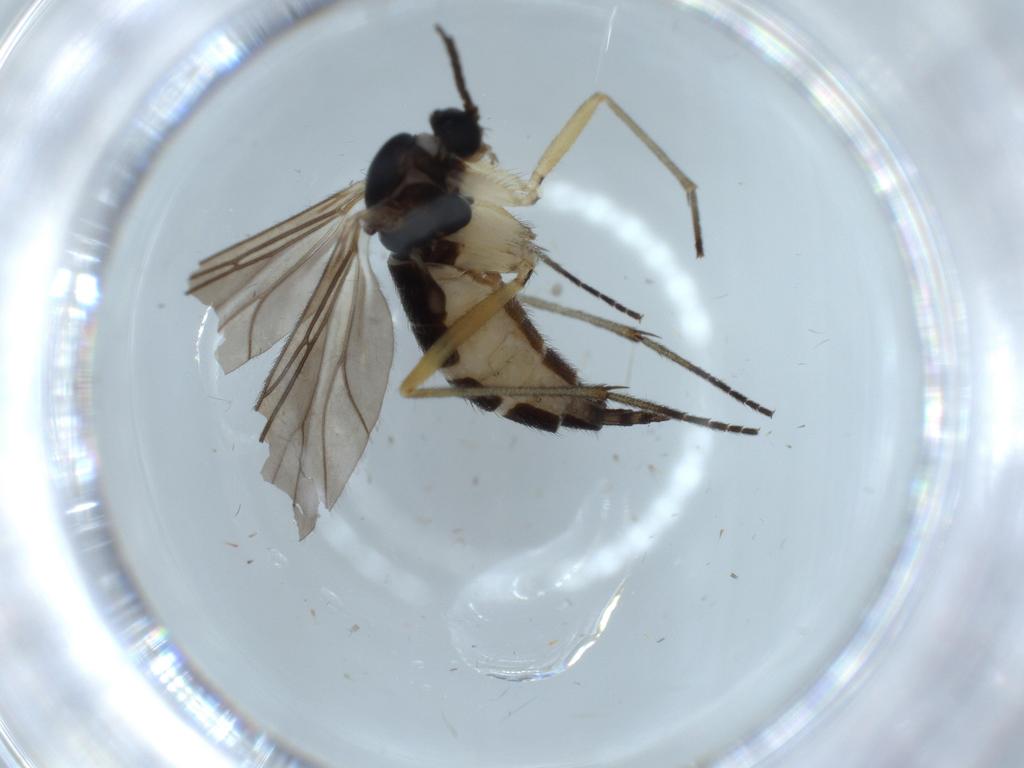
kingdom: Animalia
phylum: Arthropoda
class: Insecta
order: Diptera
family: Sciaridae
